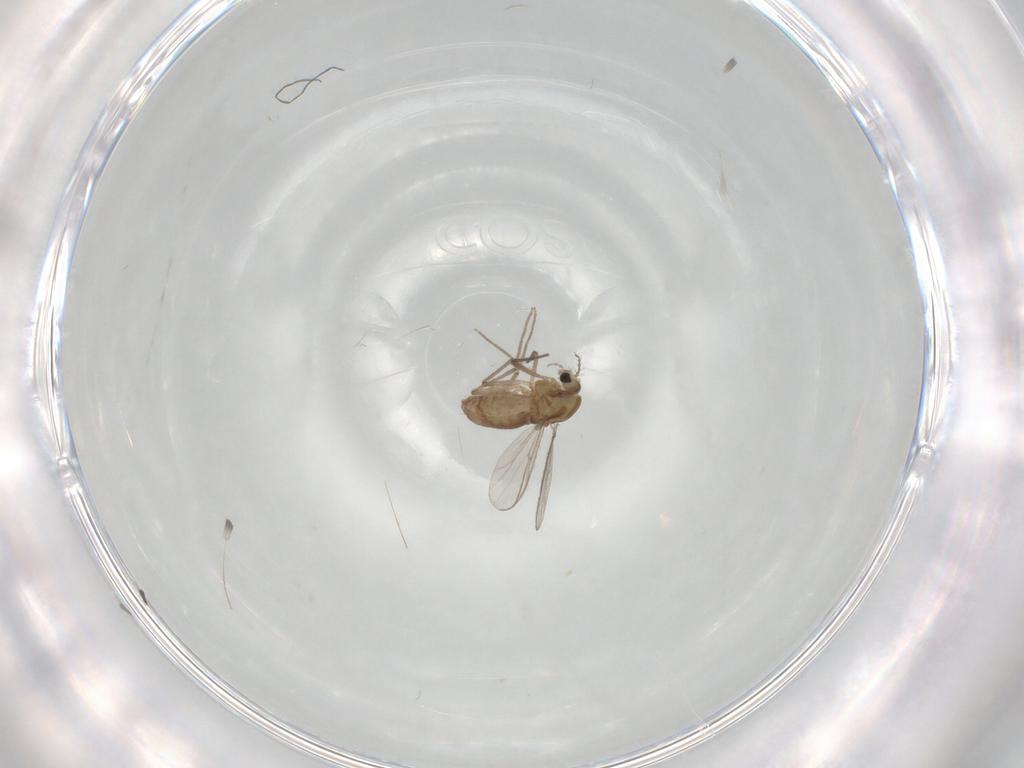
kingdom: Animalia
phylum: Arthropoda
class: Insecta
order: Diptera
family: Chironomidae
